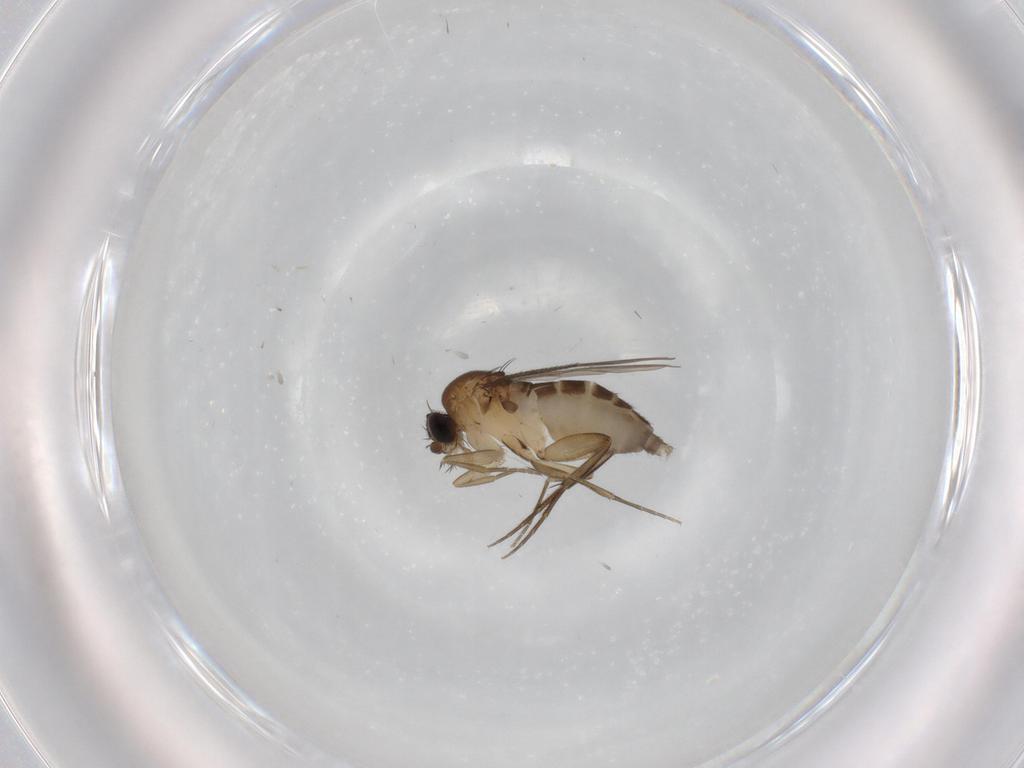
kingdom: Animalia
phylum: Arthropoda
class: Insecta
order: Diptera
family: Phoridae
